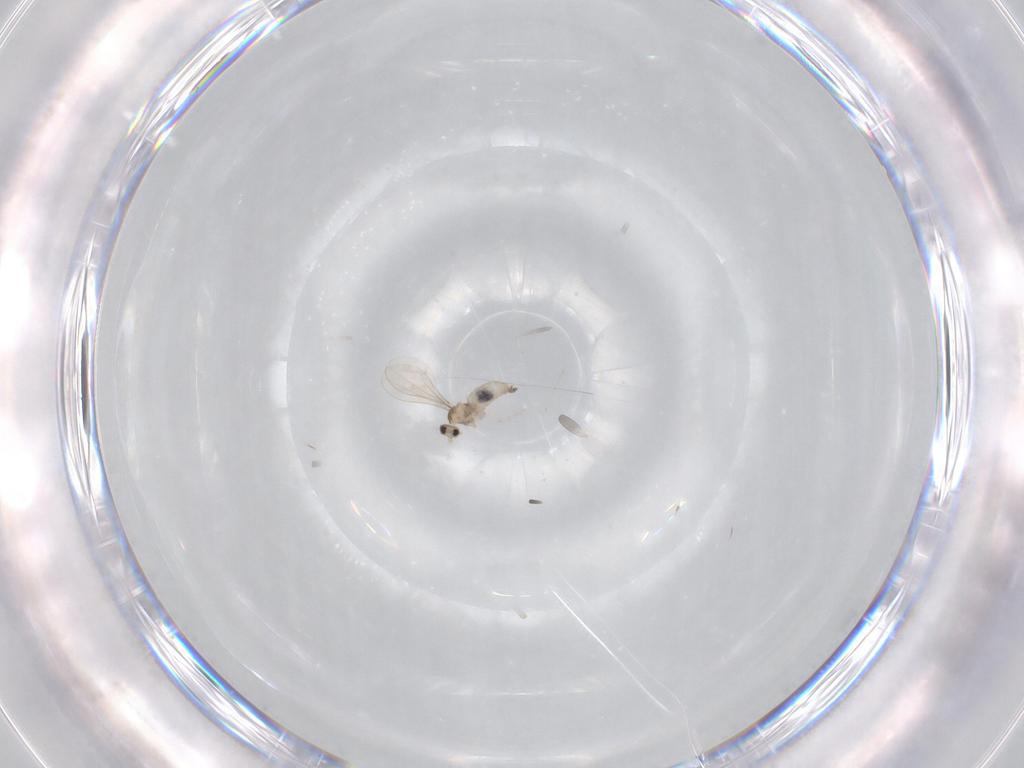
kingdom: Animalia
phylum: Arthropoda
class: Insecta
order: Diptera
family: Cecidomyiidae
